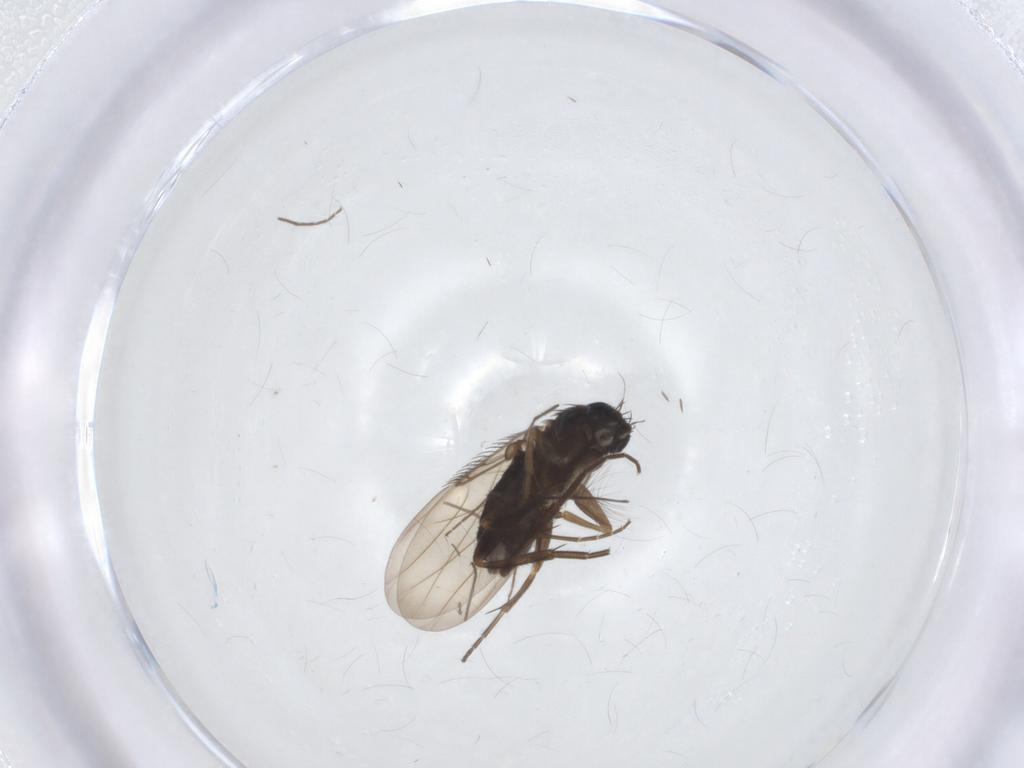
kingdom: Animalia
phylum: Arthropoda
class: Insecta
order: Diptera
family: Phoridae
